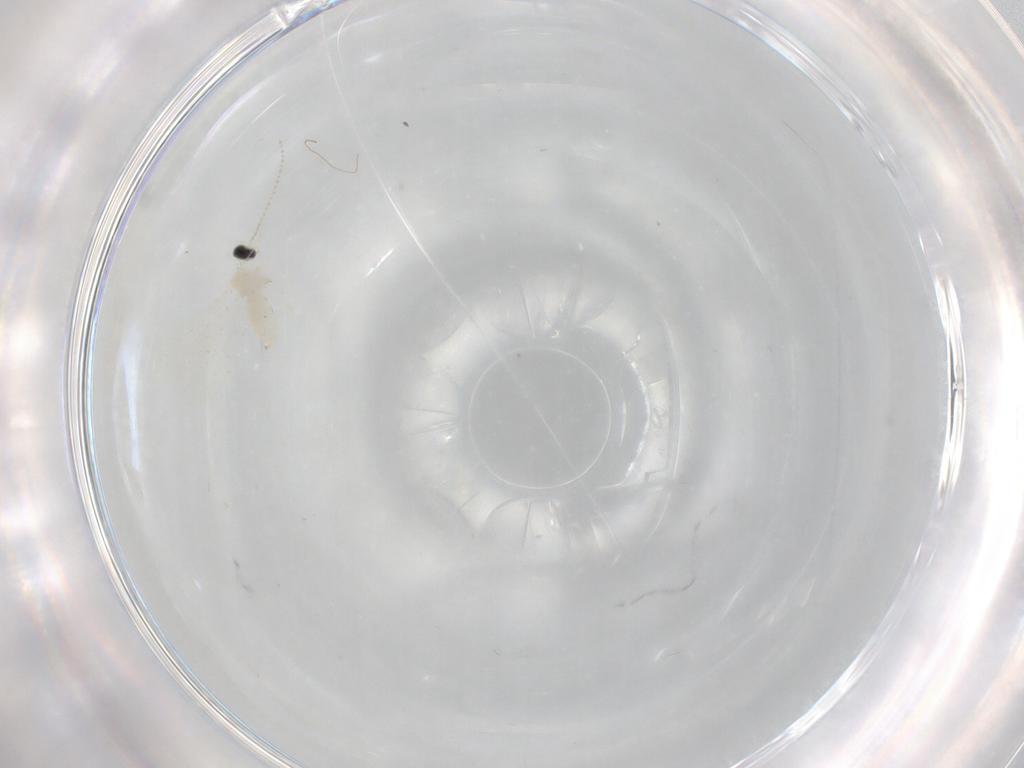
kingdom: Animalia
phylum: Arthropoda
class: Insecta
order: Diptera
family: Cecidomyiidae
